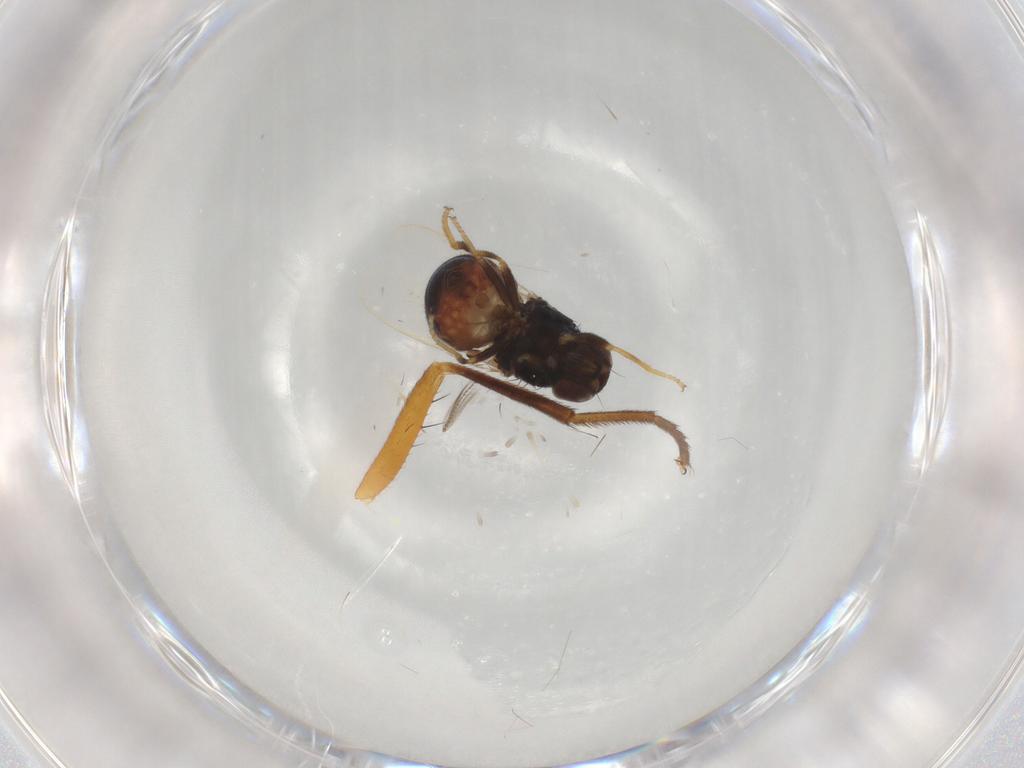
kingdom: Animalia
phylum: Arthropoda
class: Insecta
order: Diptera
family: Chloropidae
